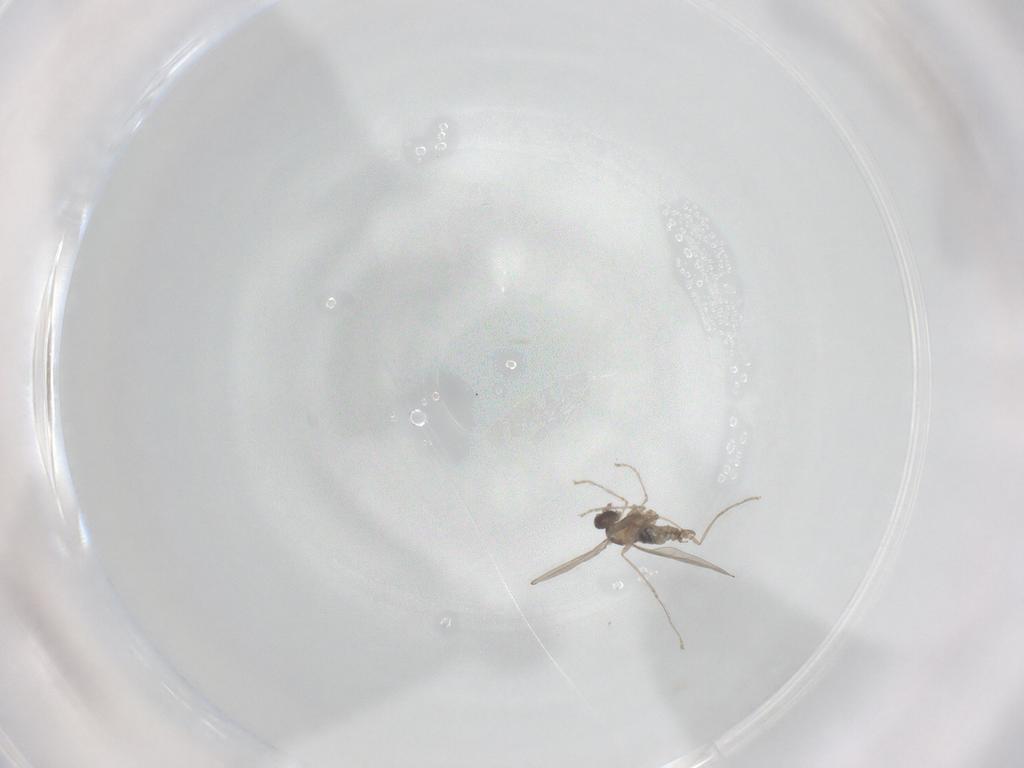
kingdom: Animalia
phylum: Arthropoda
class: Insecta
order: Diptera
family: Cecidomyiidae
